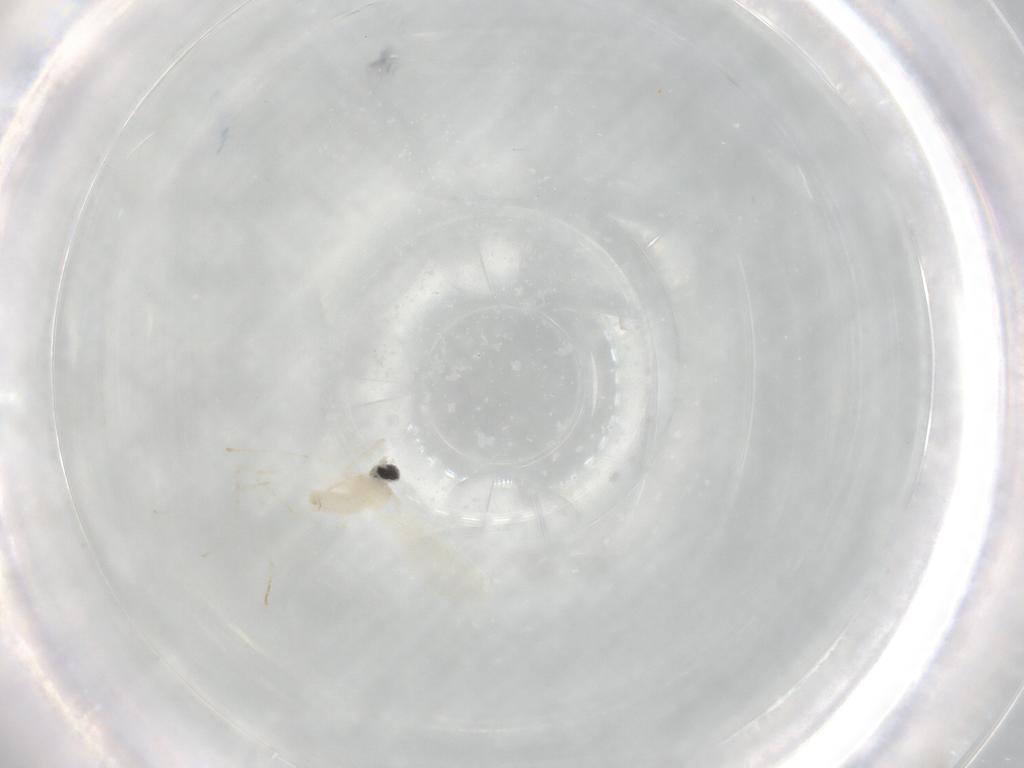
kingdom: Animalia
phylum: Arthropoda
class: Insecta
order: Diptera
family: Cecidomyiidae
